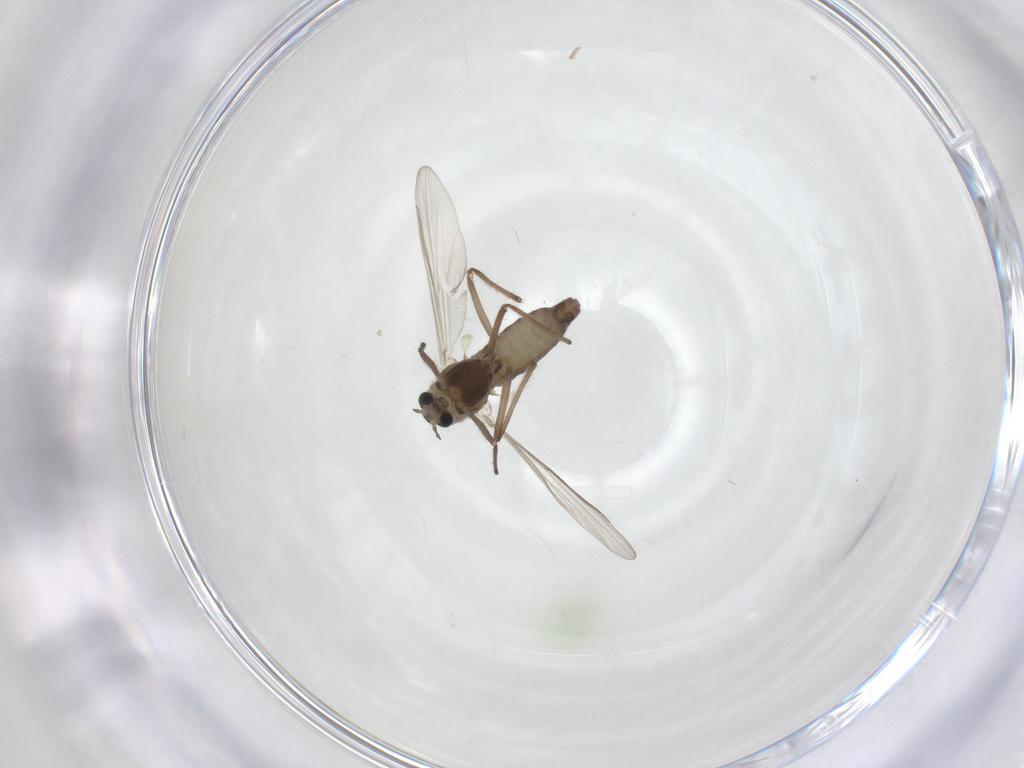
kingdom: Animalia
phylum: Arthropoda
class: Insecta
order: Diptera
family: Chironomidae
